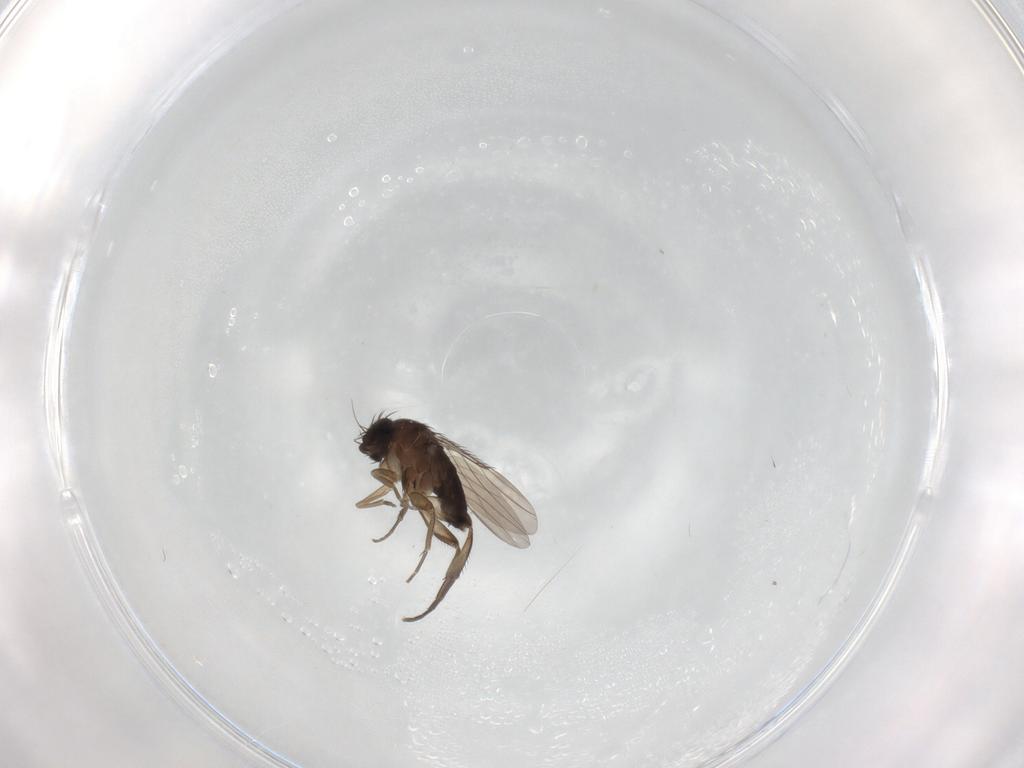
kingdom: Animalia
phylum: Arthropoda
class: Insecta
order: Diptera
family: Phoridae
